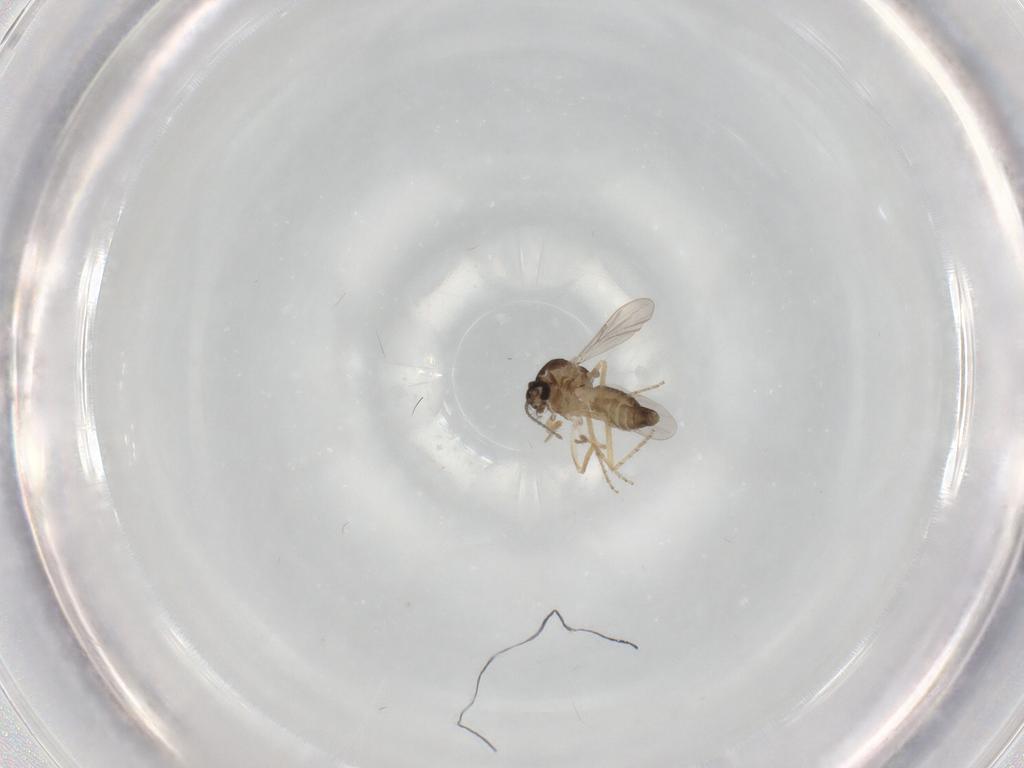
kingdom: Animalia
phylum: Arthropoda
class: Insecta
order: Diptera
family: Ceratopogonidae
